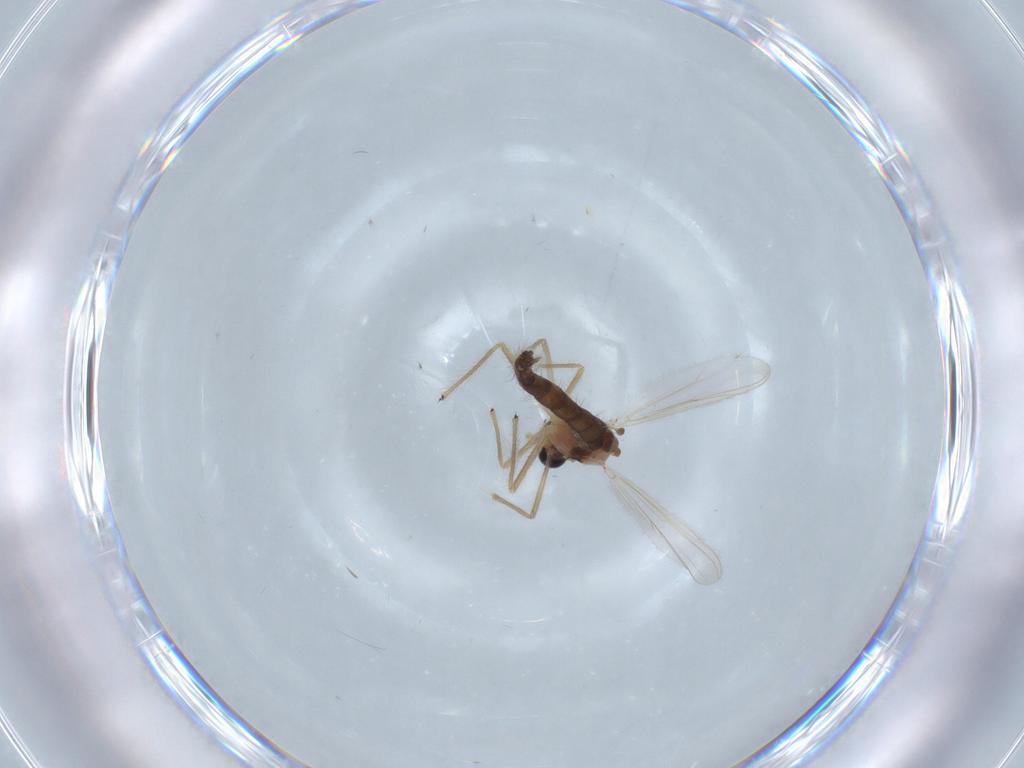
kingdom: Animalia
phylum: Arthropoda
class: Insecta
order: Diptera
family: Chironomidae
